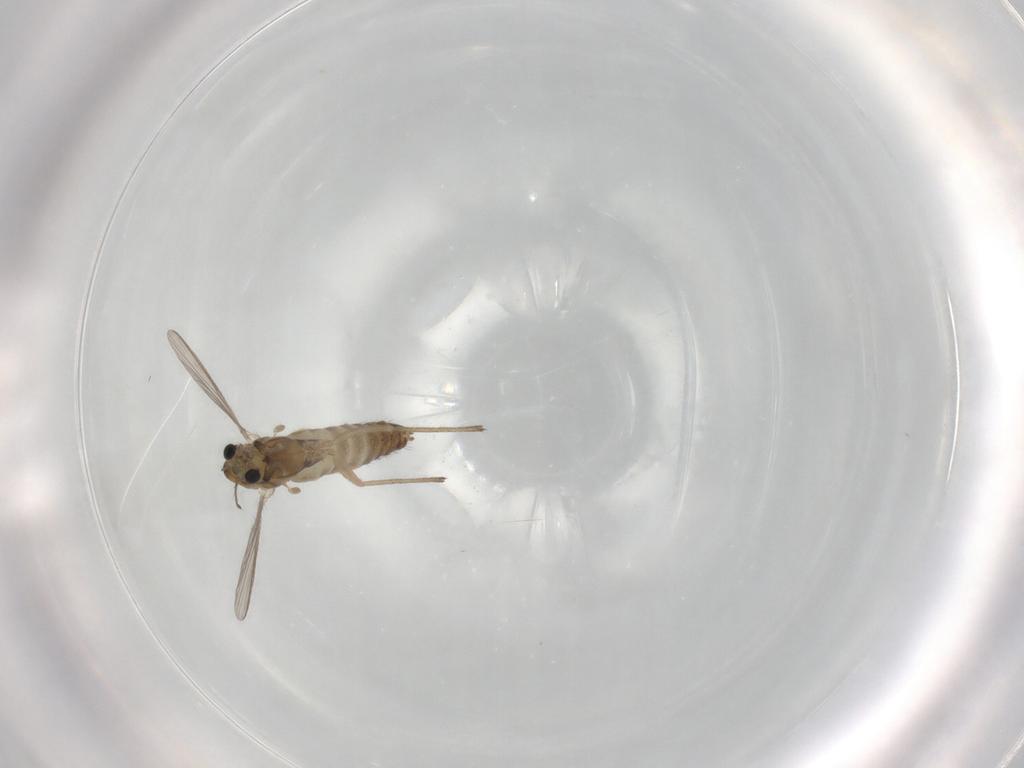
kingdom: Animalia
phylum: Arthropoda
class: Insecta
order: Diptera
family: Chironomidae
